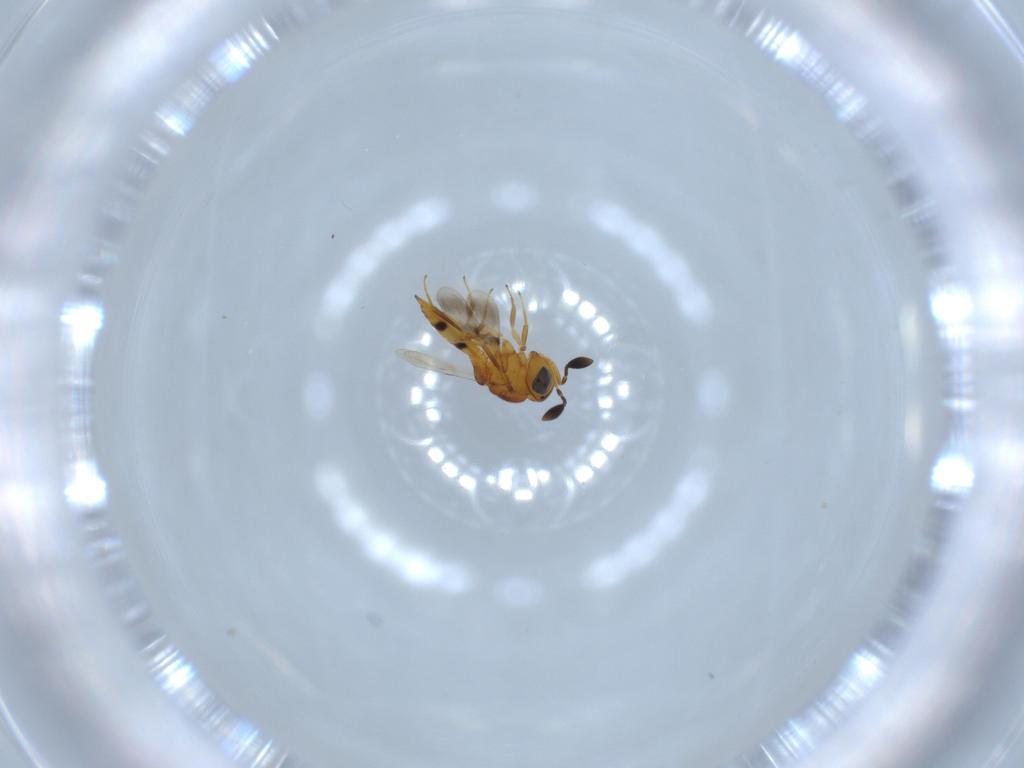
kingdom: Animalia
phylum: Arthropoda
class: Insecta
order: Hymenoptera
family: Scelionidae
